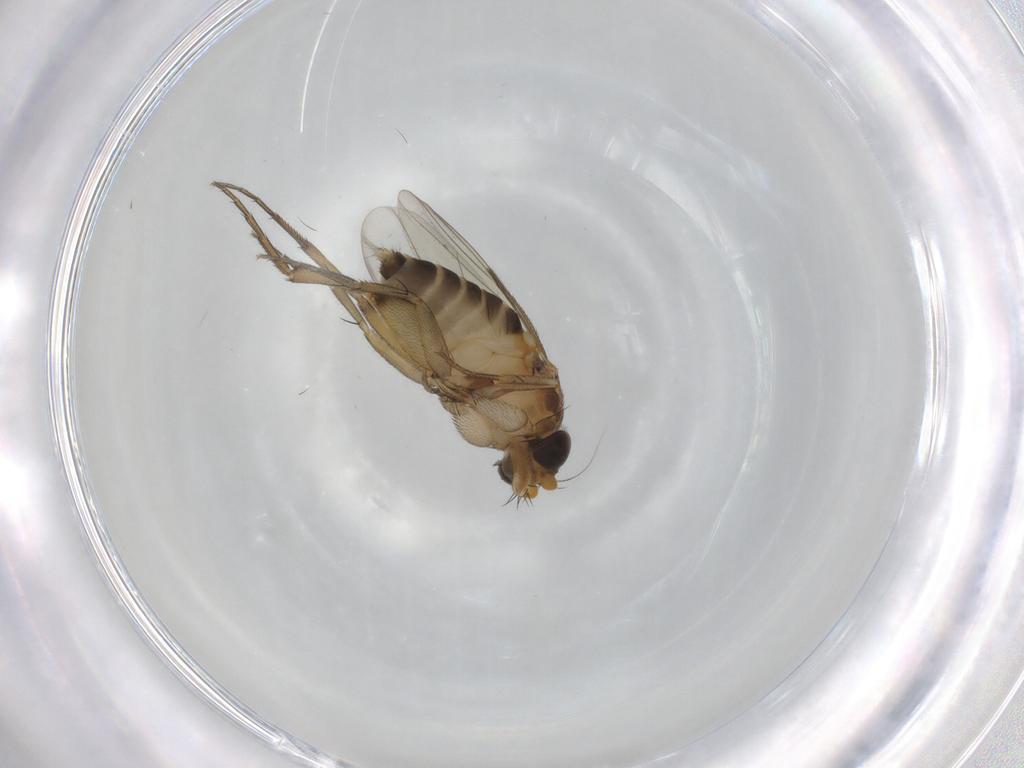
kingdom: Animalia
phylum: Arthropoda
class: Insecta
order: Diptera
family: Phoridae
